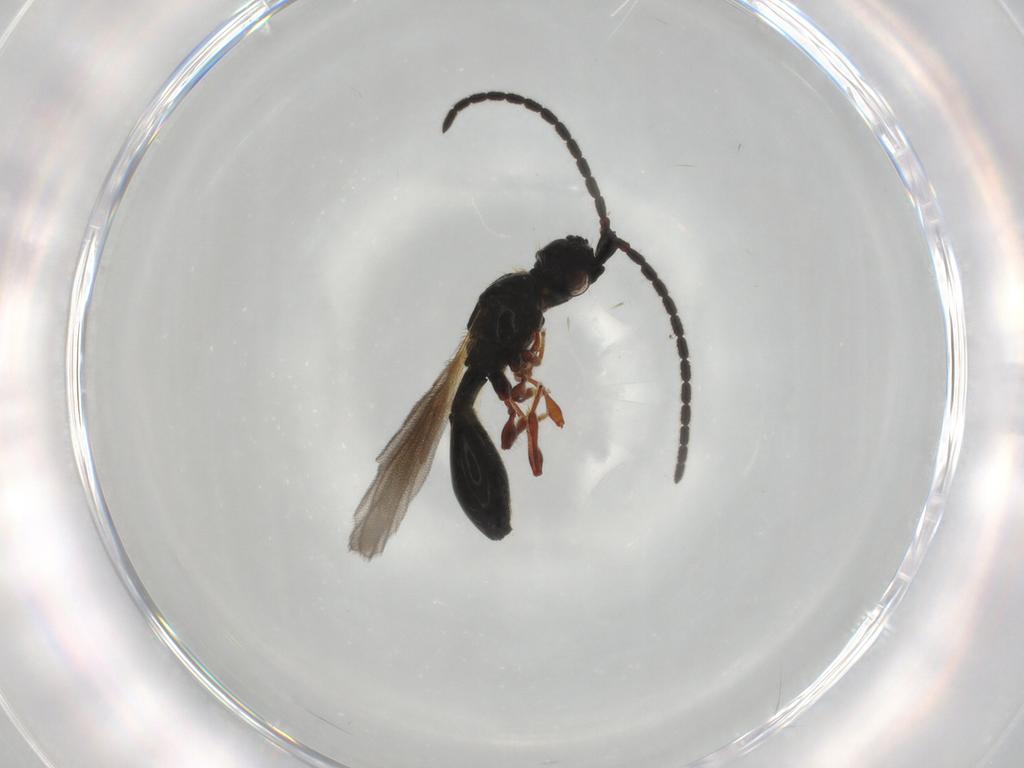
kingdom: Animalia
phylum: Arthropoda
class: Insecta
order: Hymenoptera
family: Diapriidae
